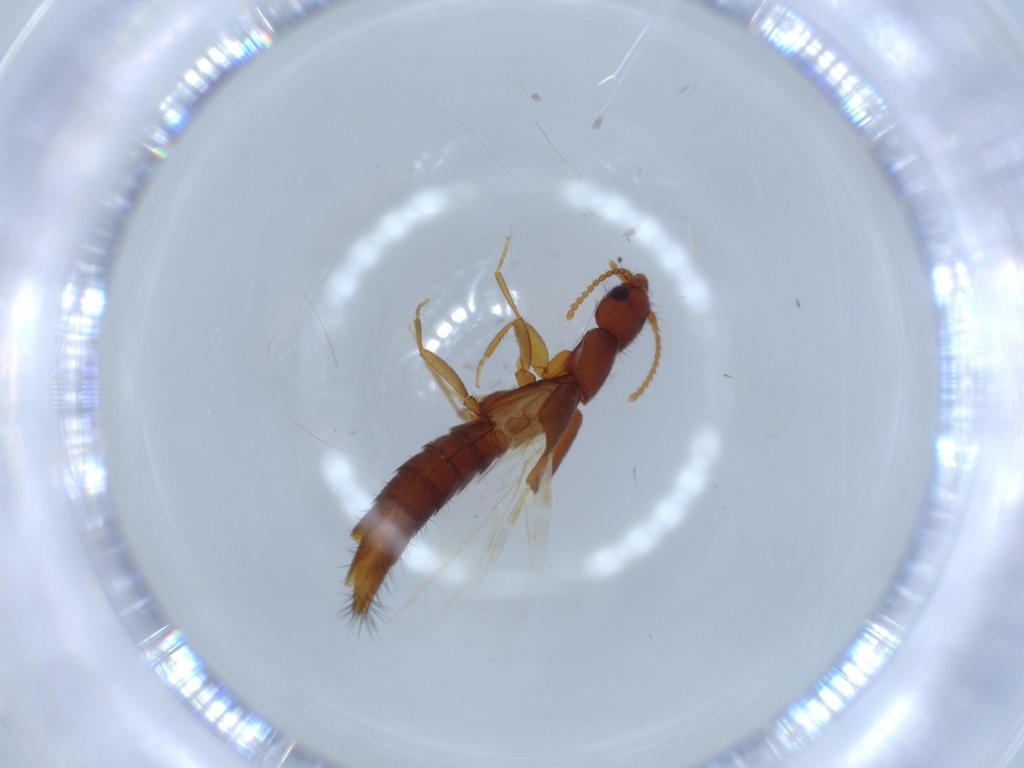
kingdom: Animalia
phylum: Arthropoda
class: Insecta
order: Coleoptera
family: Staphylinidae
